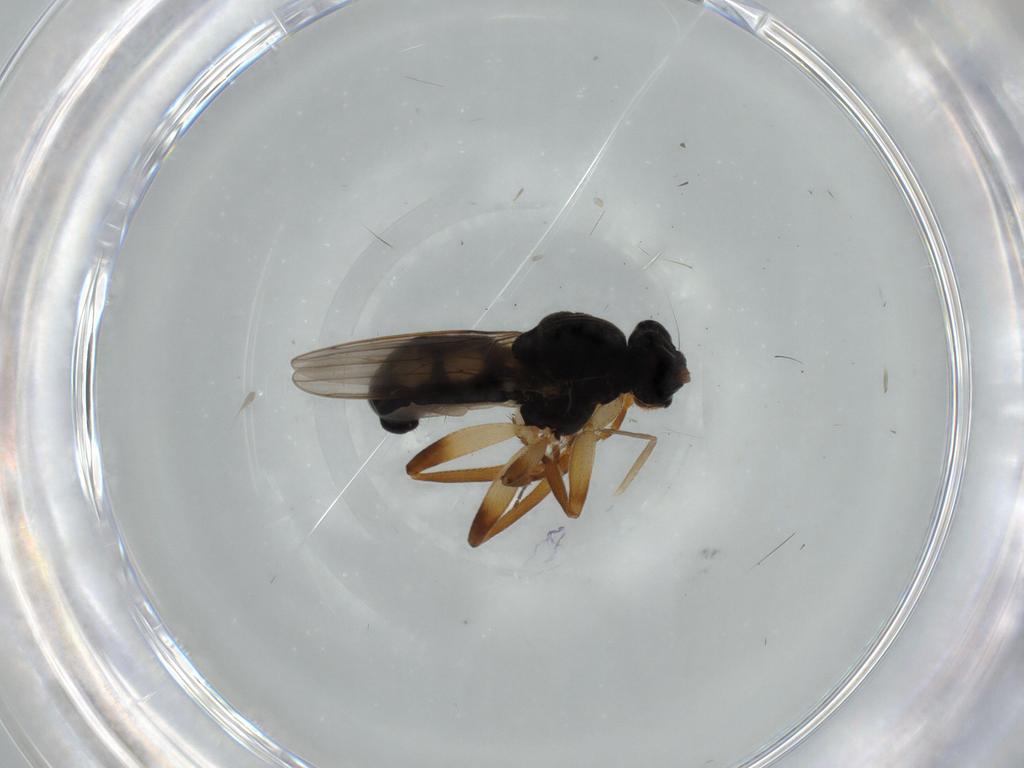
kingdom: Animalia
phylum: Arthropoda
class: Insecta
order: Diptera
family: Sphaeroceridae
